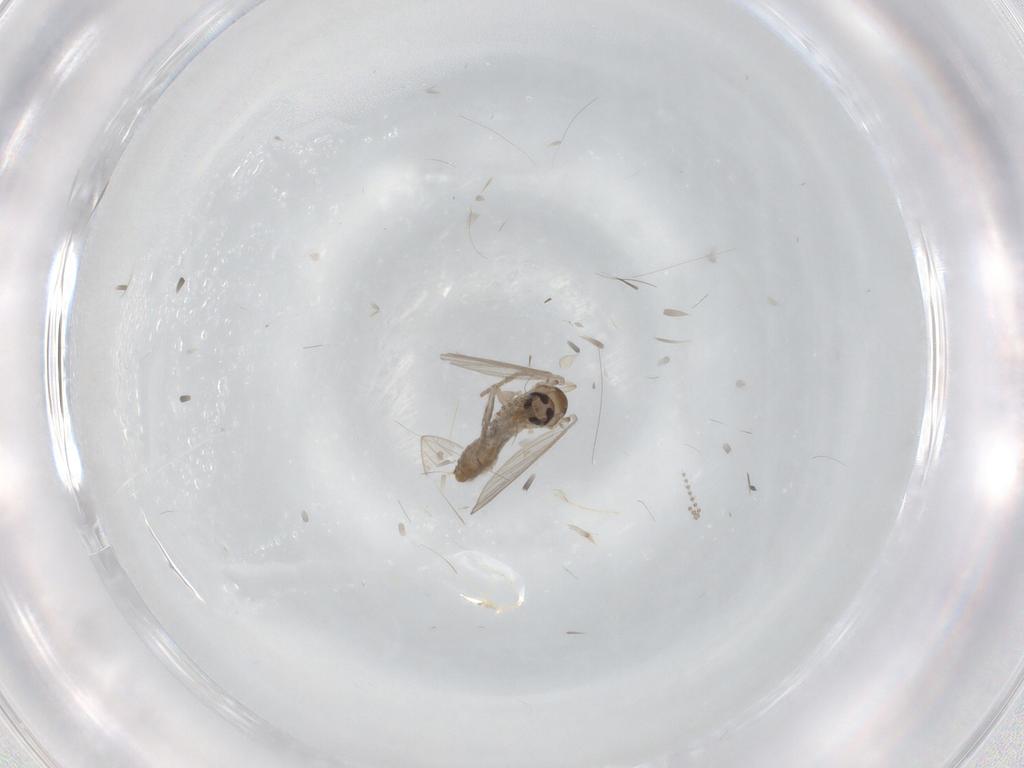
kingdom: Animalia
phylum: Arthropoda
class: Insecta
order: Diptera
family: Psychodidae
